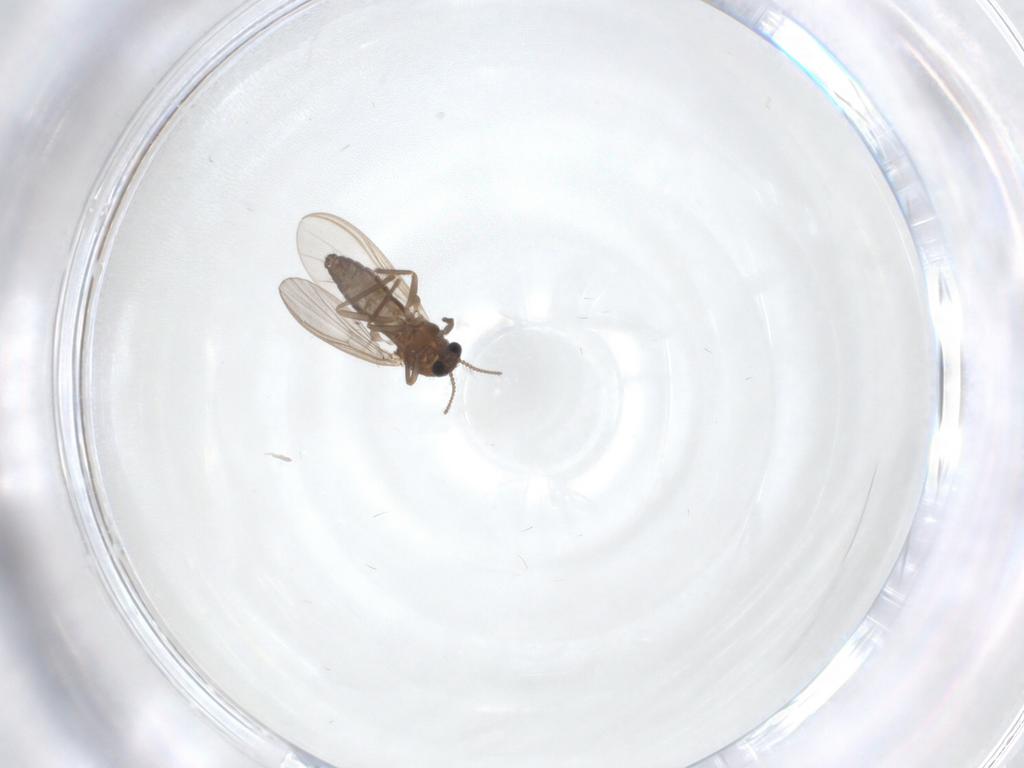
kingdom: Animalia
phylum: Arthropoda
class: Insecta
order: Diptera
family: Chironomidae
